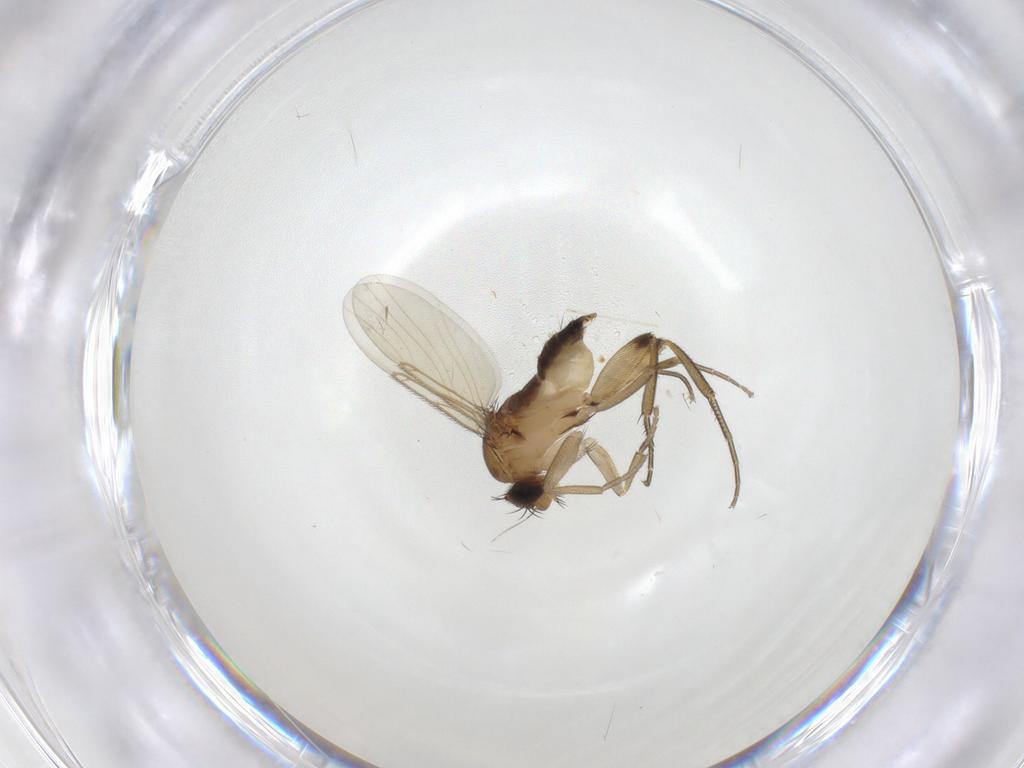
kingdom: Animalia
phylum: Arthropoda
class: Insecta
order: Diptera
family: Phoridae
